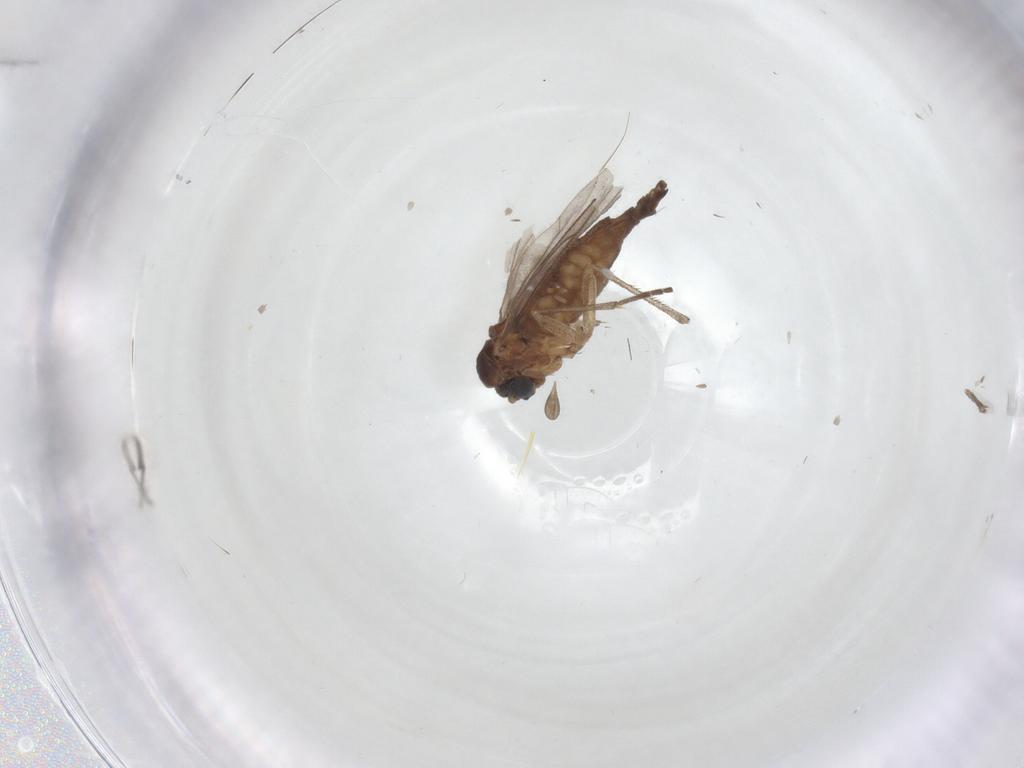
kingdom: Animalia
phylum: Arthropoda
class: Insecta
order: Diptera
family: Sciaridae
